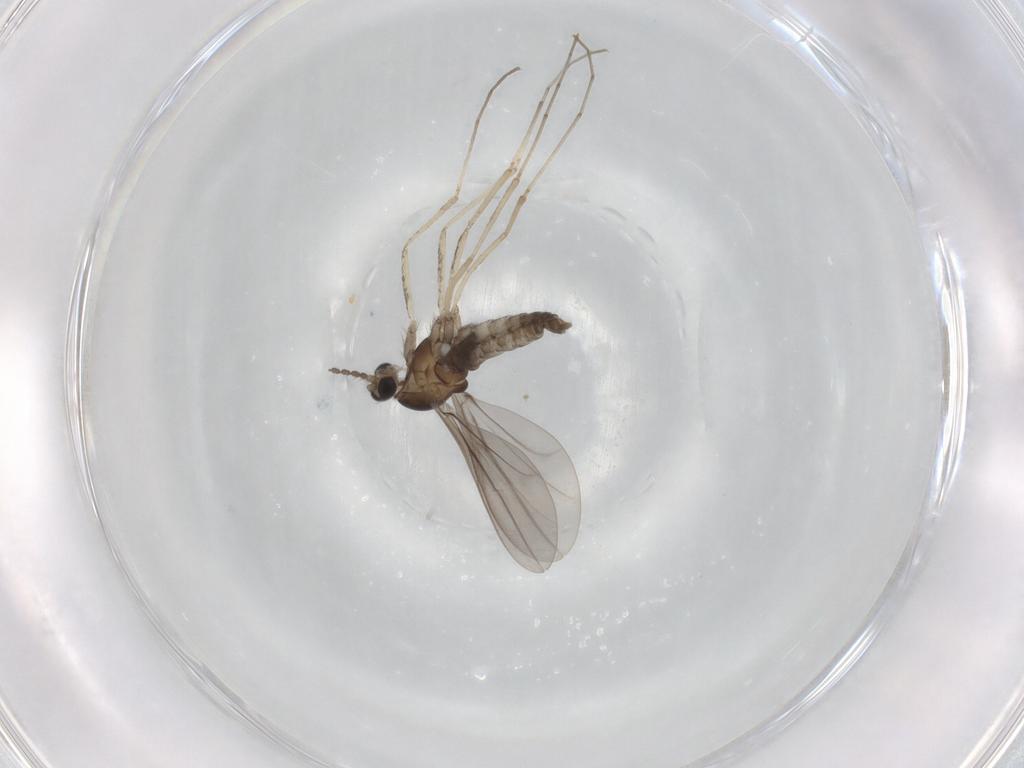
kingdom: Animalia
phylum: Arthropoda
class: Insecta
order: Diptera
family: Cecidomyiidae
